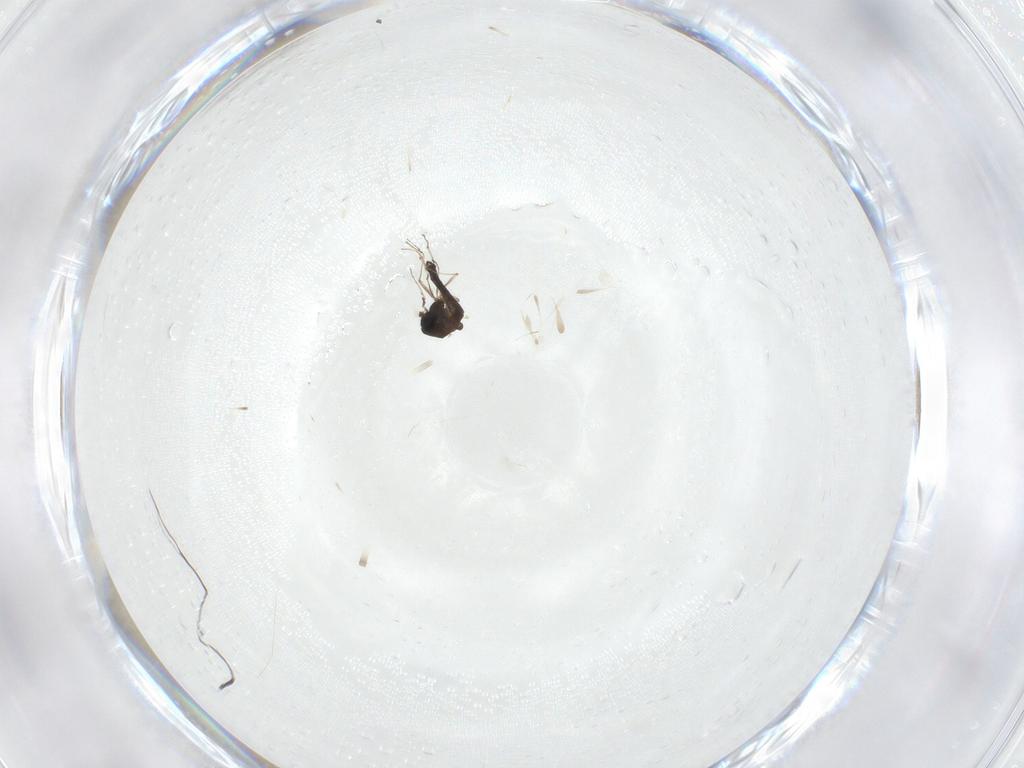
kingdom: Animalia
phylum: Arthropoda
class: Insecta
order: Diptera
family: Chironomidae
